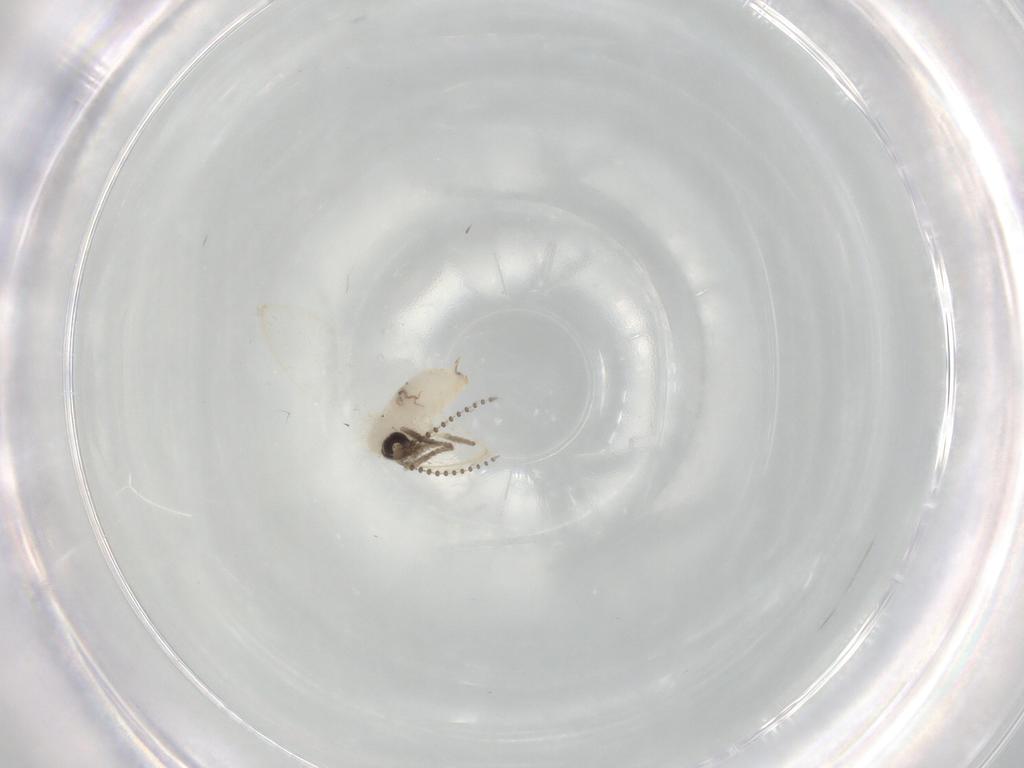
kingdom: Animalia
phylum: Arthropoda
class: Insecta
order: Diptera
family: Psychodidae
